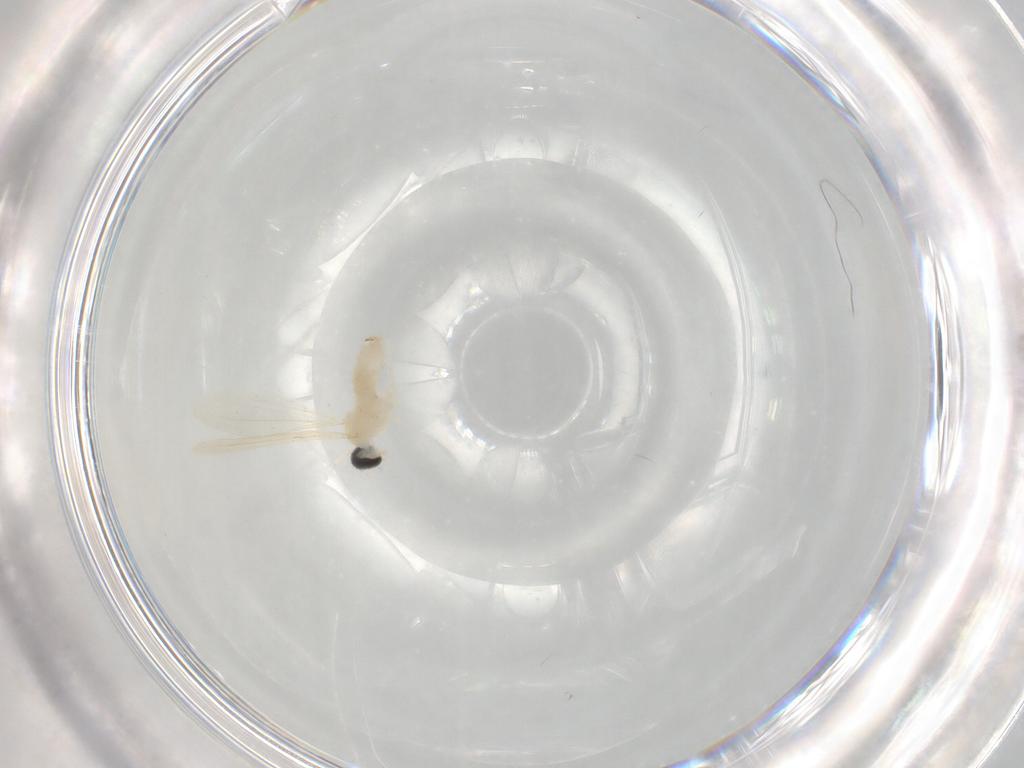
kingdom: Animalia
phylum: Arthropoda
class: Insecta
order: Diptera
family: Cecidomyiidae
